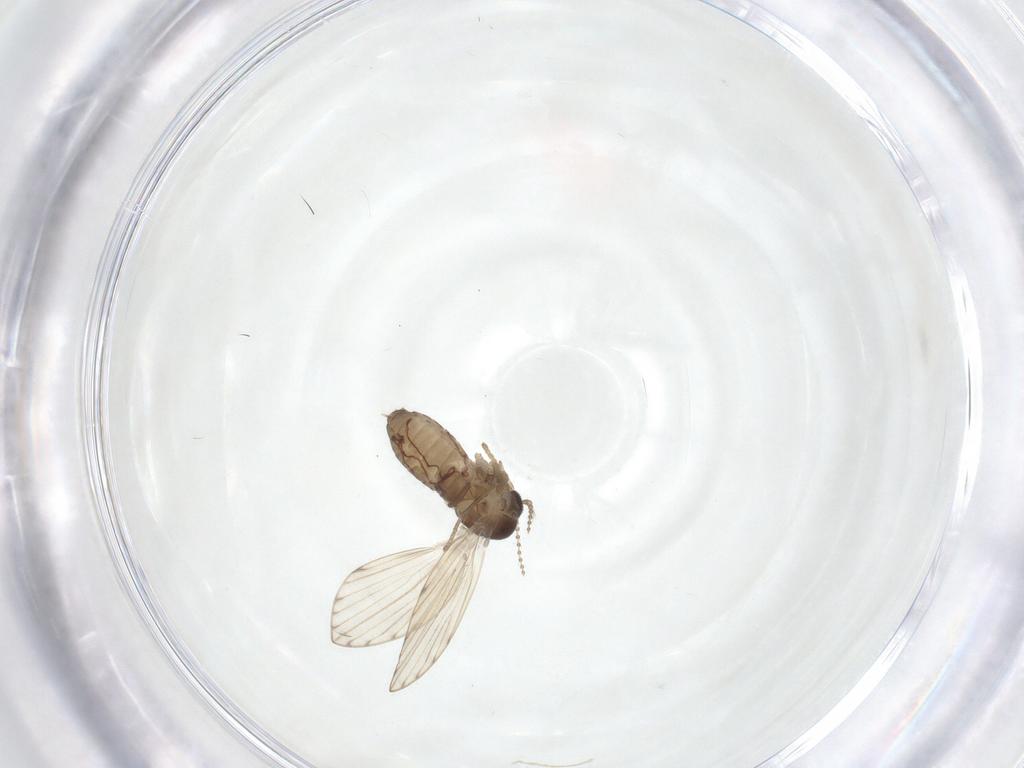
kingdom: Animalia
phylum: Arthropoda
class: Insecta
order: Diptera
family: Psychodidae
